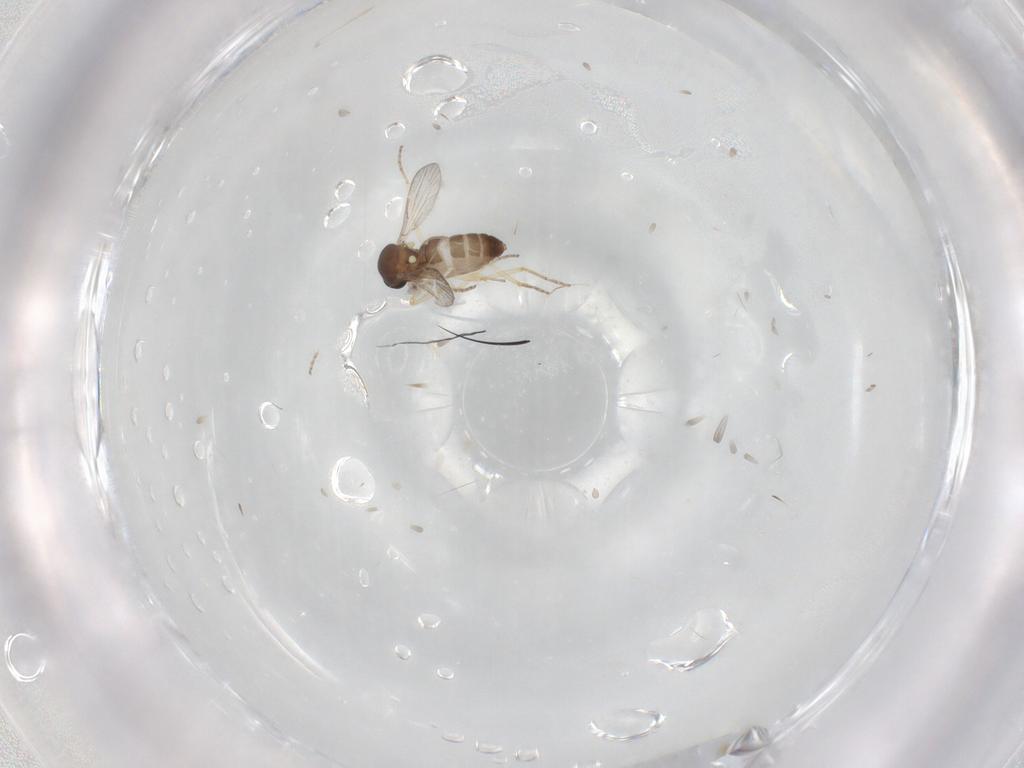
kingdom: Animalia
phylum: Arthropoda
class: Insecta
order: Diptera
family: Ceratopogonidae
